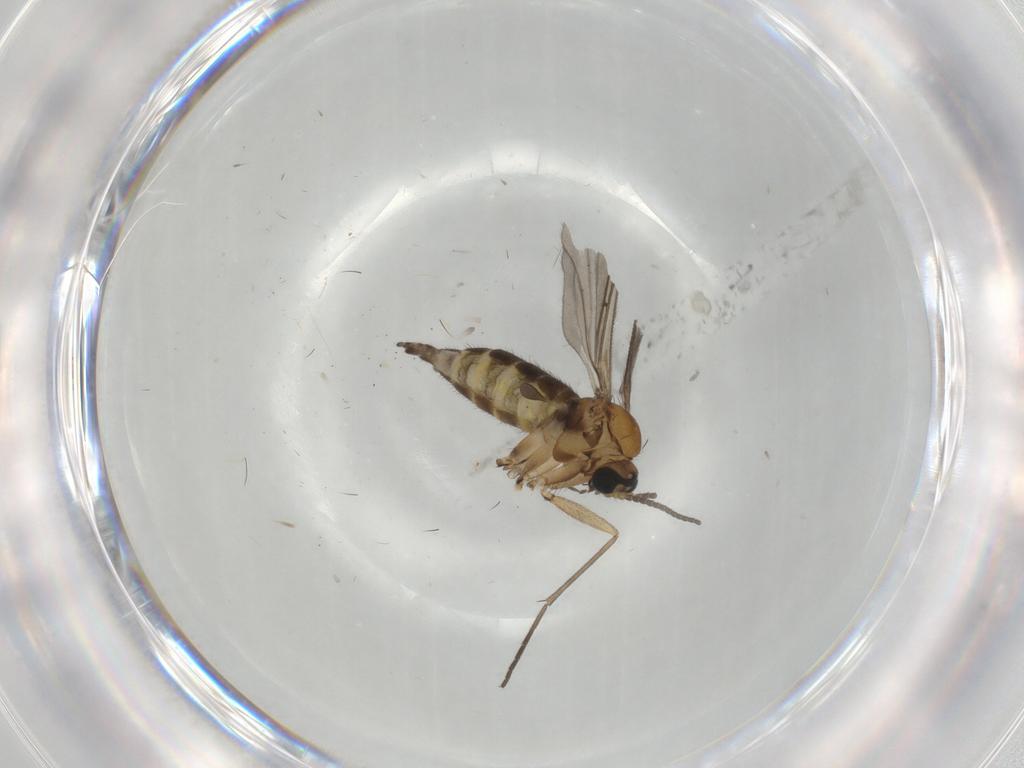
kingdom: Animalia
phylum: Arthropoda
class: Insecta
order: Diptera
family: Sciaridae
